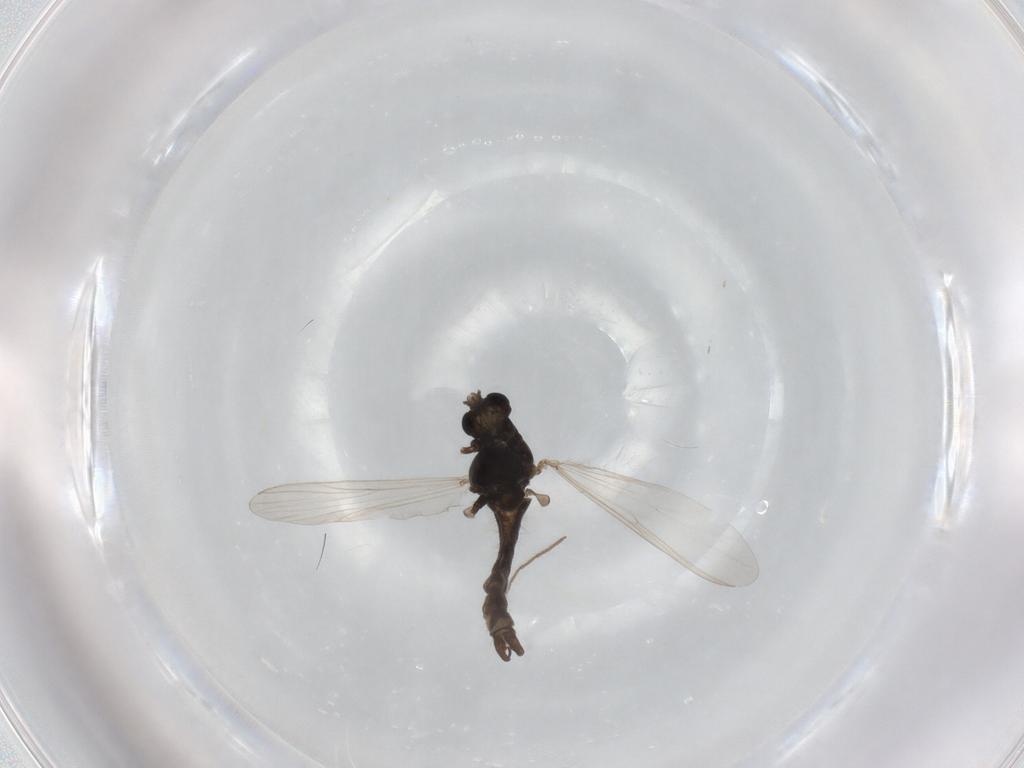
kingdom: Animalia
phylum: Arthropoda
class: Insecta
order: Diptera
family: Chironomidae
